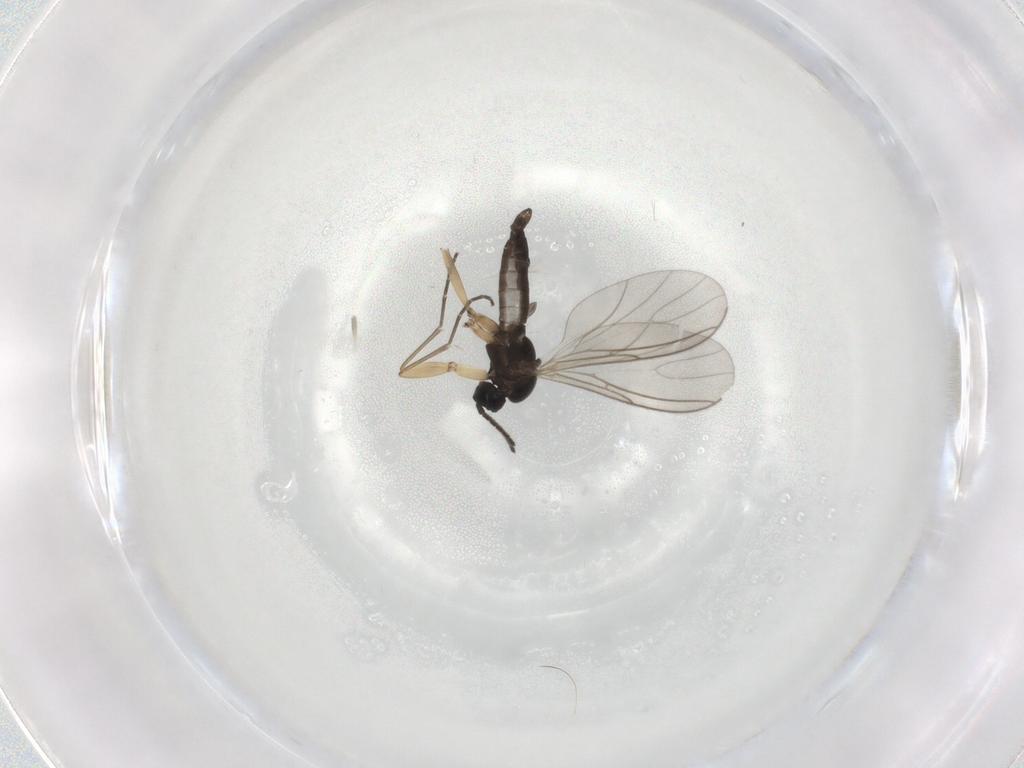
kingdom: Animalia
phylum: Arthropoda
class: Insecta
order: Diptera
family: Sciaridae
